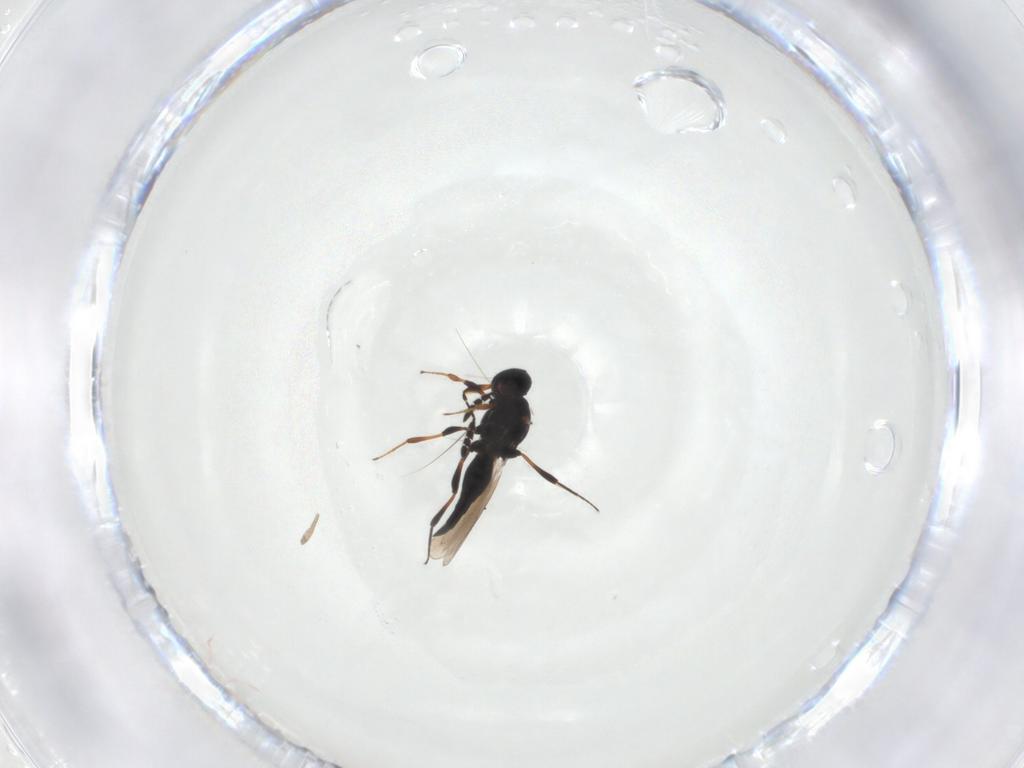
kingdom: Animalia
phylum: Arthropoda
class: Insecta
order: Hymenoptera
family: Platygastridae
